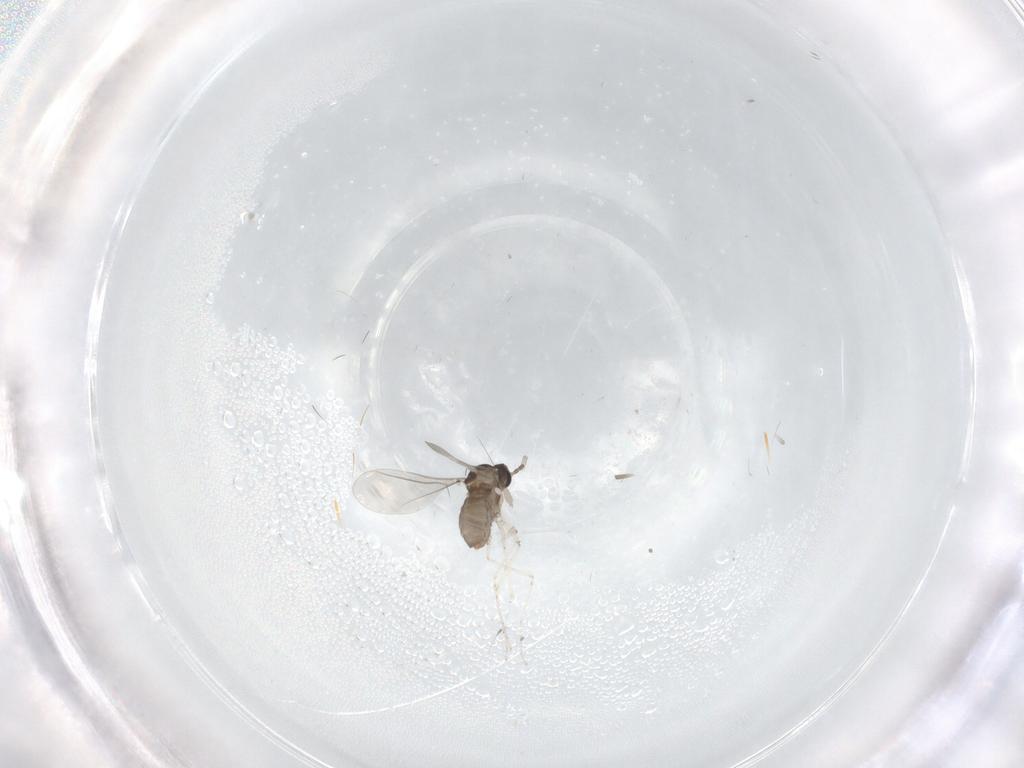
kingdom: Animalia
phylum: Arthropoda
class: Insecta
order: Diptera
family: Cecidomyiidae
